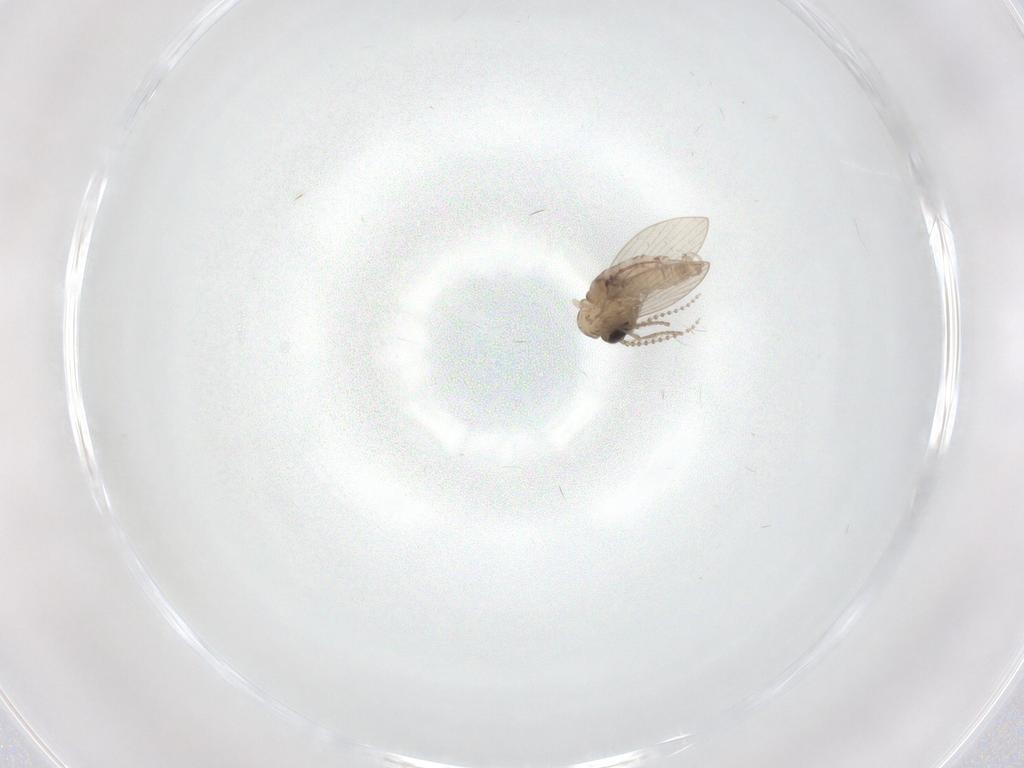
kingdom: Animalia
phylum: Arthropoda
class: Insecta
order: Diptera
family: Psychodidae
